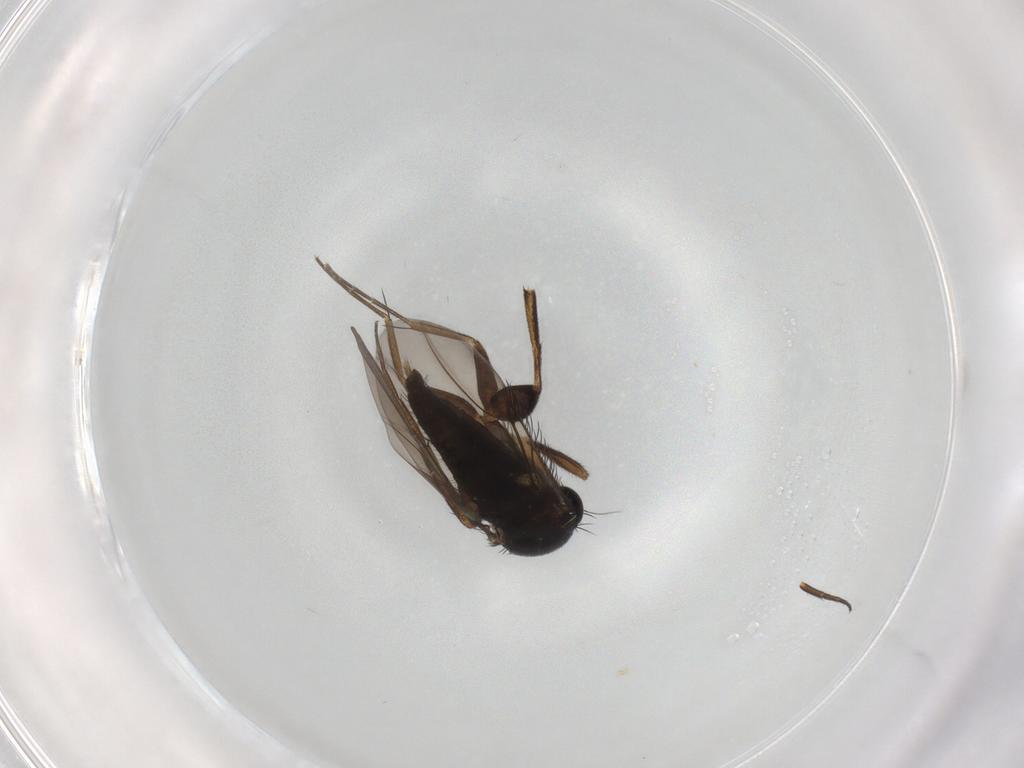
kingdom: Animalia
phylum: Arthropoda
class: Insecta
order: Diptera
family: Phoridae
